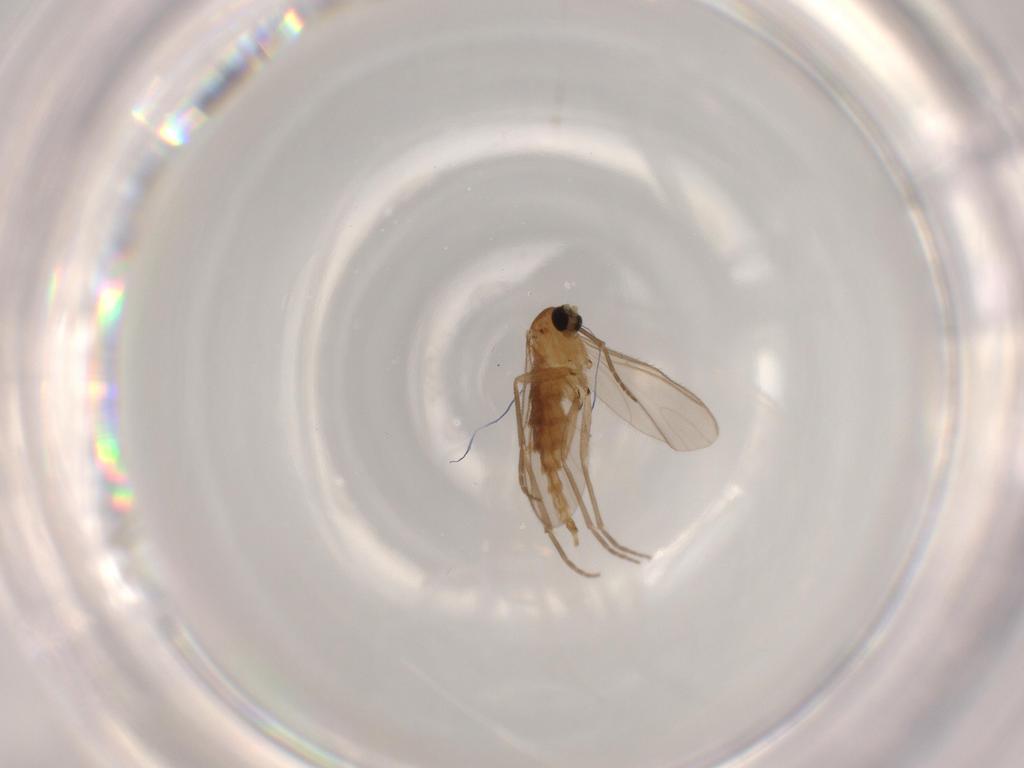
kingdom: Animalia
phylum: Arthropoda
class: Insecta
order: Diptera
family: Sciaridae
